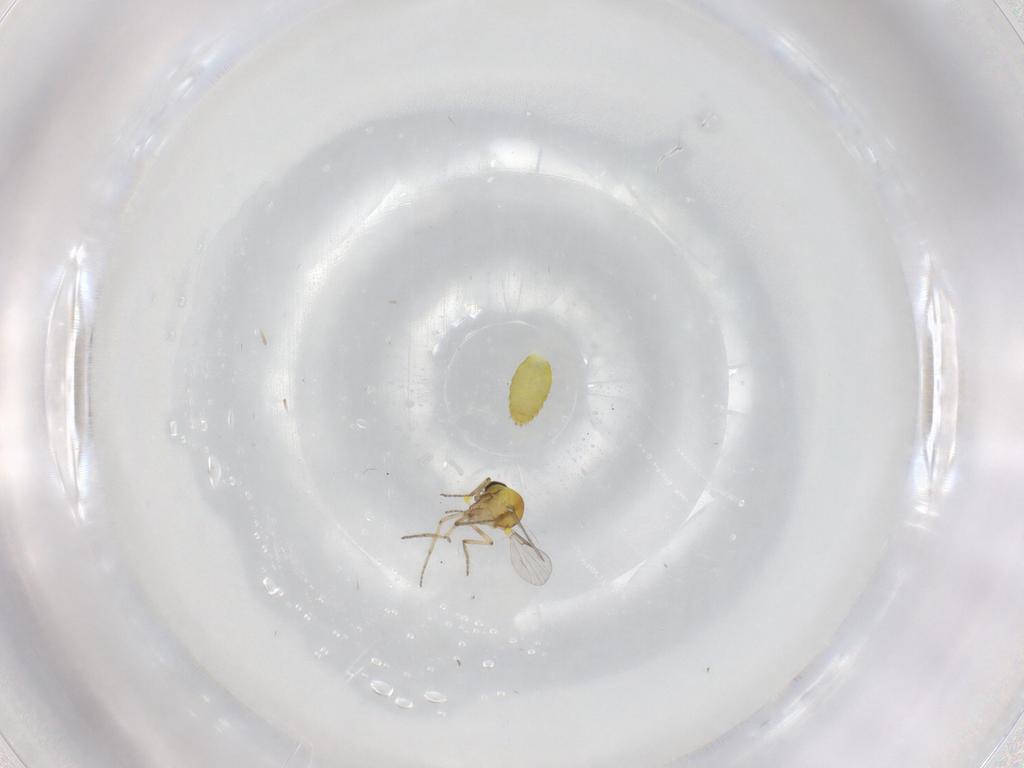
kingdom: Animalia
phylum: Arthropoda
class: Insecta
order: Diptera
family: Ceratopogonidae
